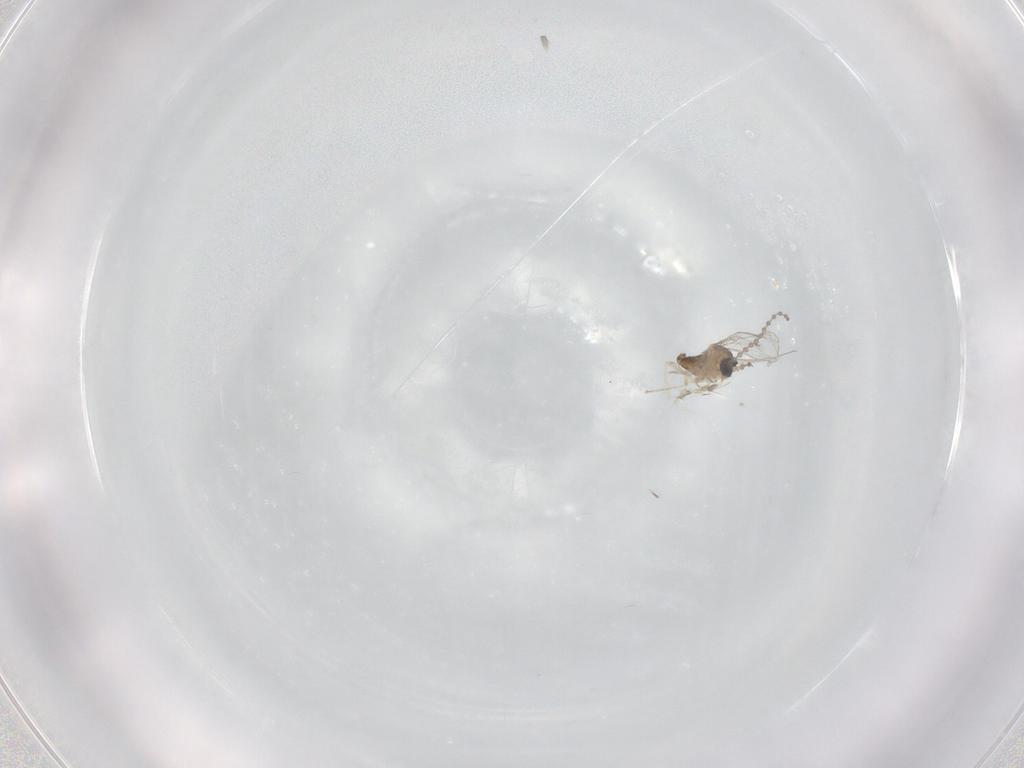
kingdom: Animalia
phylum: Arthropoda
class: Insecta
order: Diptera
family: Cecidomyiidae
